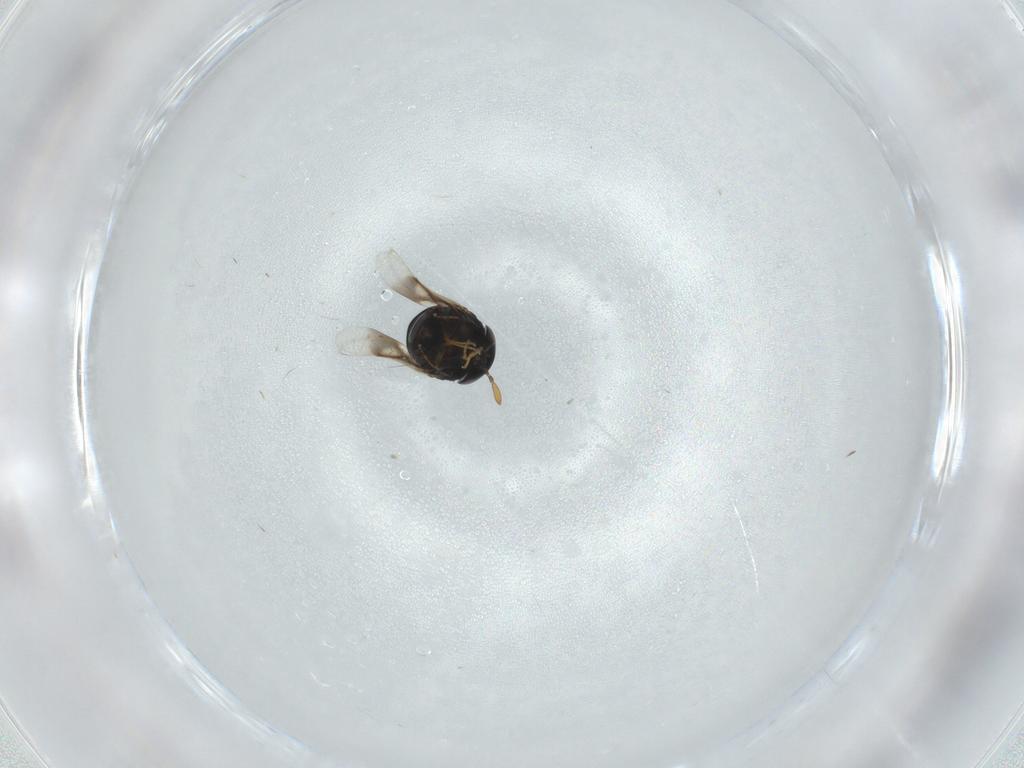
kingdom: Animalia
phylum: Arthropoda
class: Insecta
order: Hymenoptera
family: Signiphoridae
